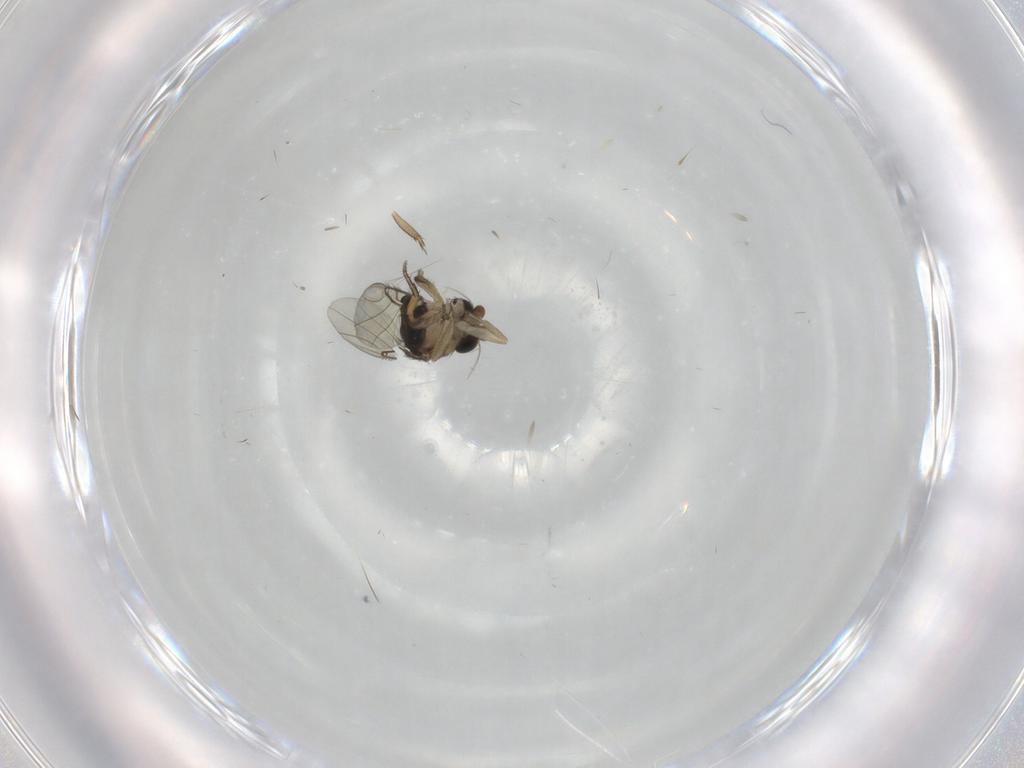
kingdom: Animalia
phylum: Arthropoda
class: Insecta
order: Diptera
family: Phoridae
